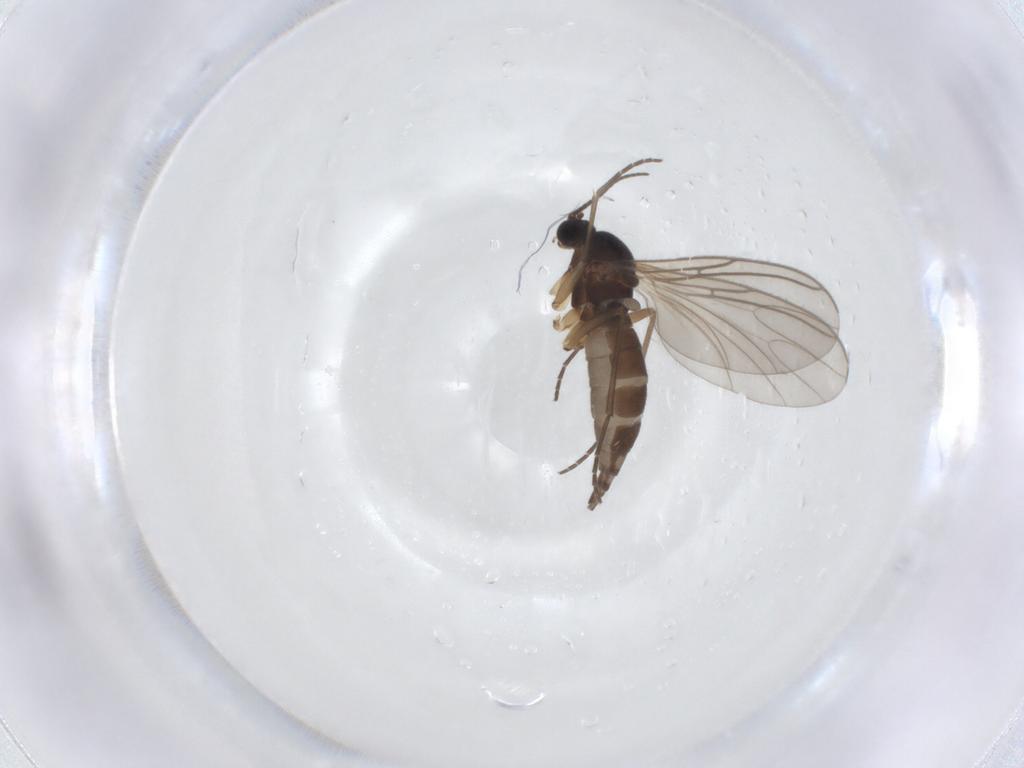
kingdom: Animalia
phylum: Arthropoda
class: Insecta
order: Diptera
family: Sciaridae
